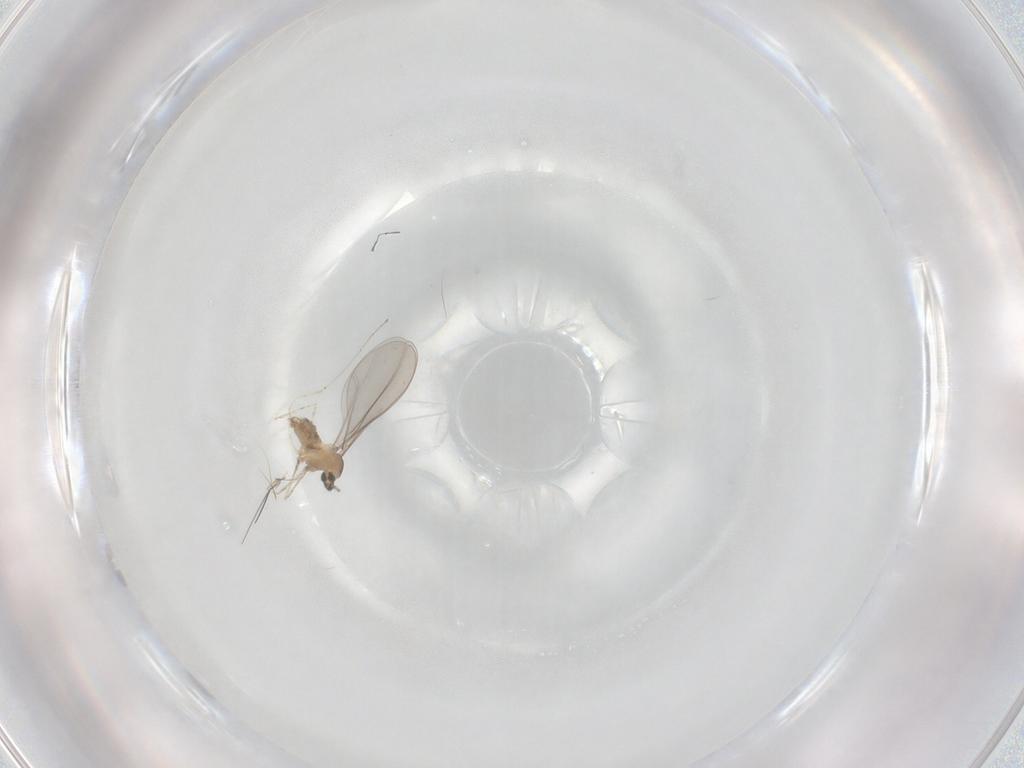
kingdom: Animalia
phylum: Arthropoda
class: Insecta
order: Diptera
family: Cecidomyiidae
